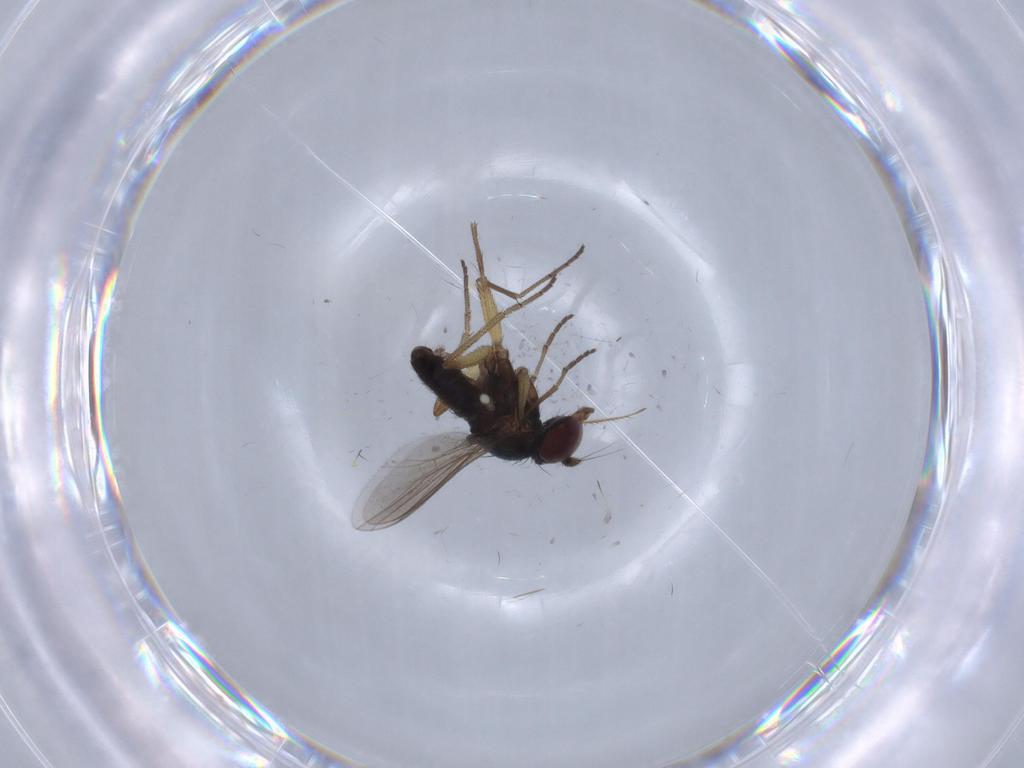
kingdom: Animalia
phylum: Arthropoda
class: Insecta
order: Diptera
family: Dolichopodidae
